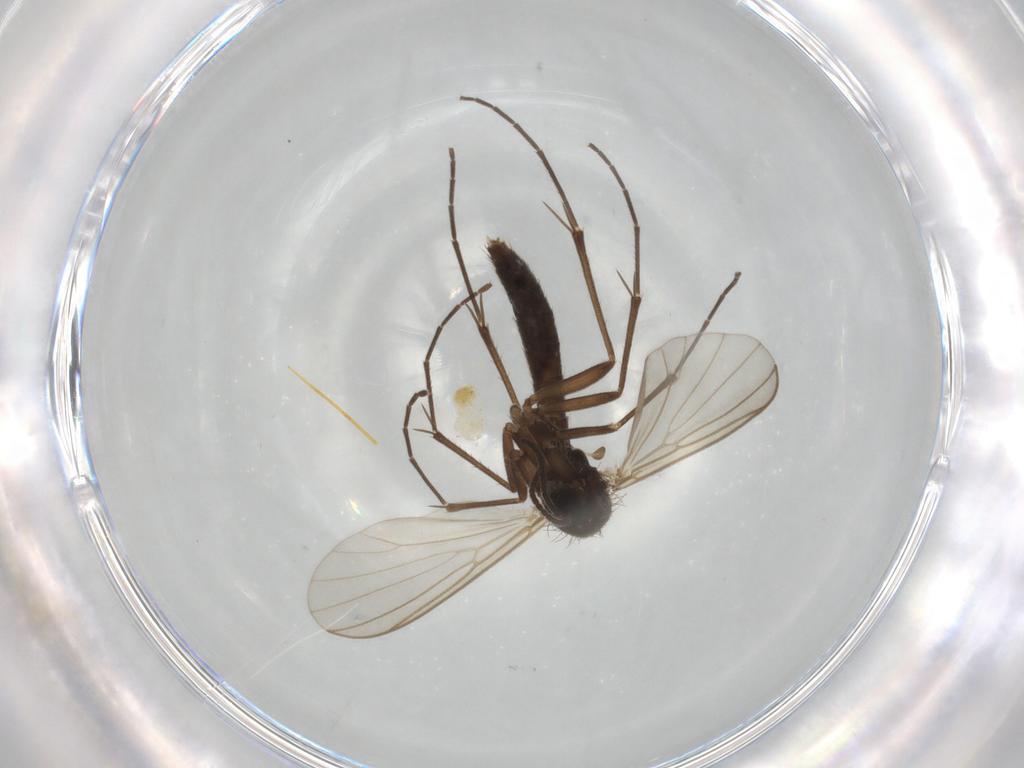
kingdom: Animalia
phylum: Arthropoda
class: Insecta
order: Diptera
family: Mycetophilidae
